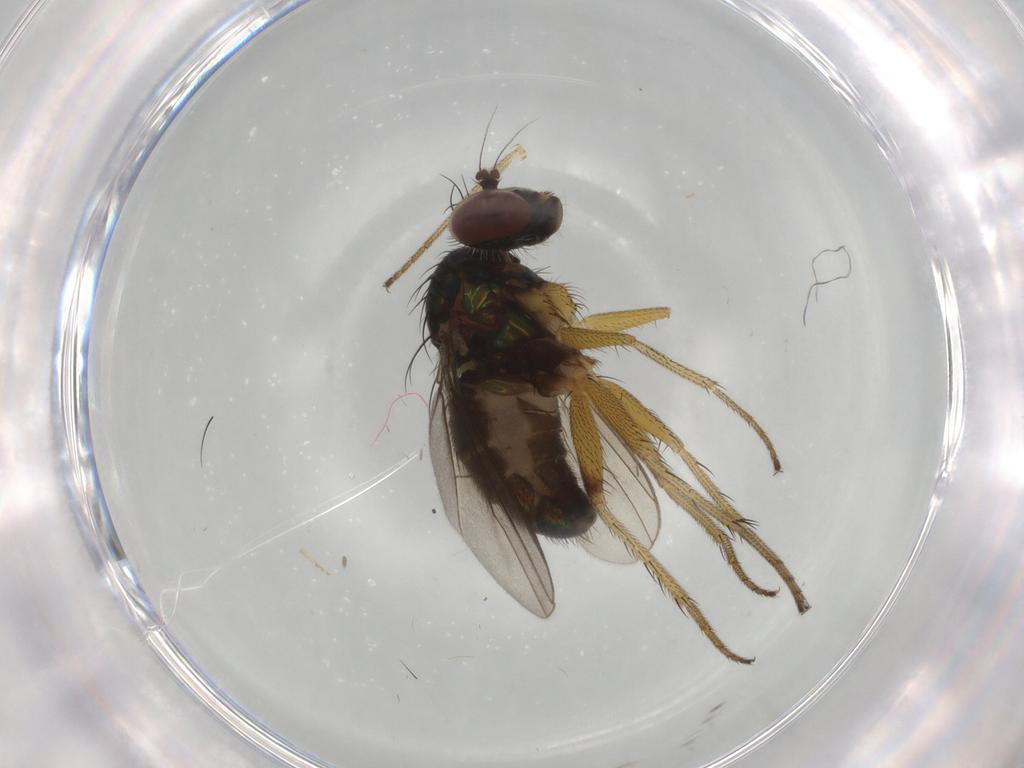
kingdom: Animalia
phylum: Arthropoda
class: Insecta
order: Diptera
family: Dolichopodidae
